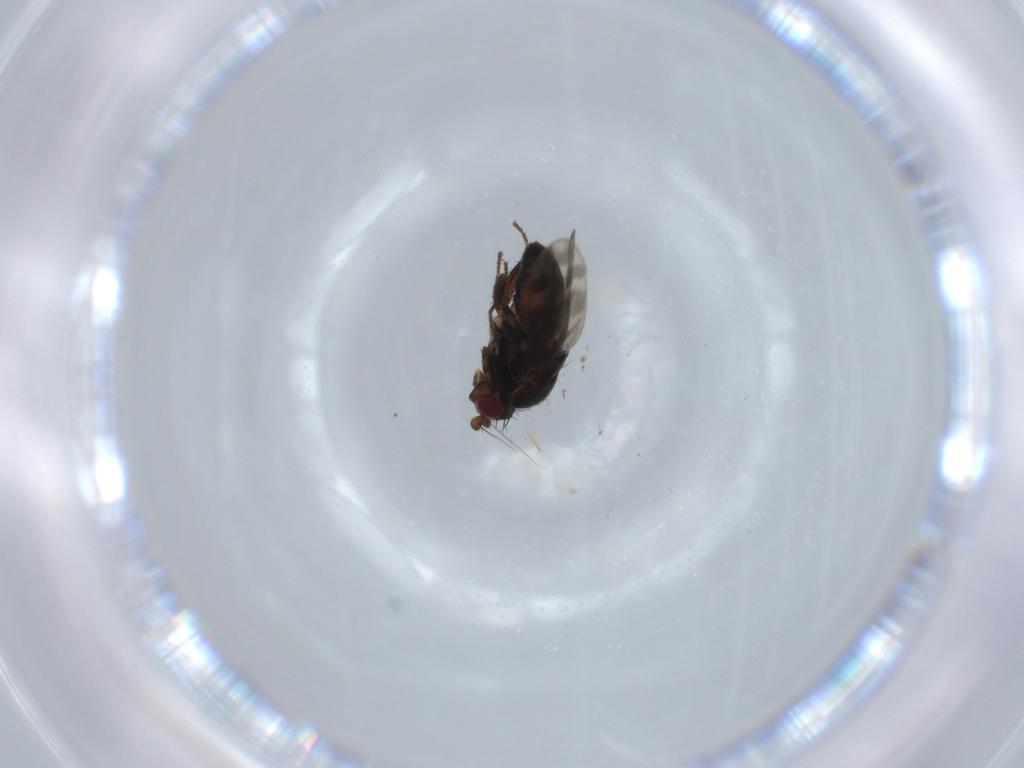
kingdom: Animalia
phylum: Arthropoda
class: Insecta
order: Diptera
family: Sphaeroceridae
